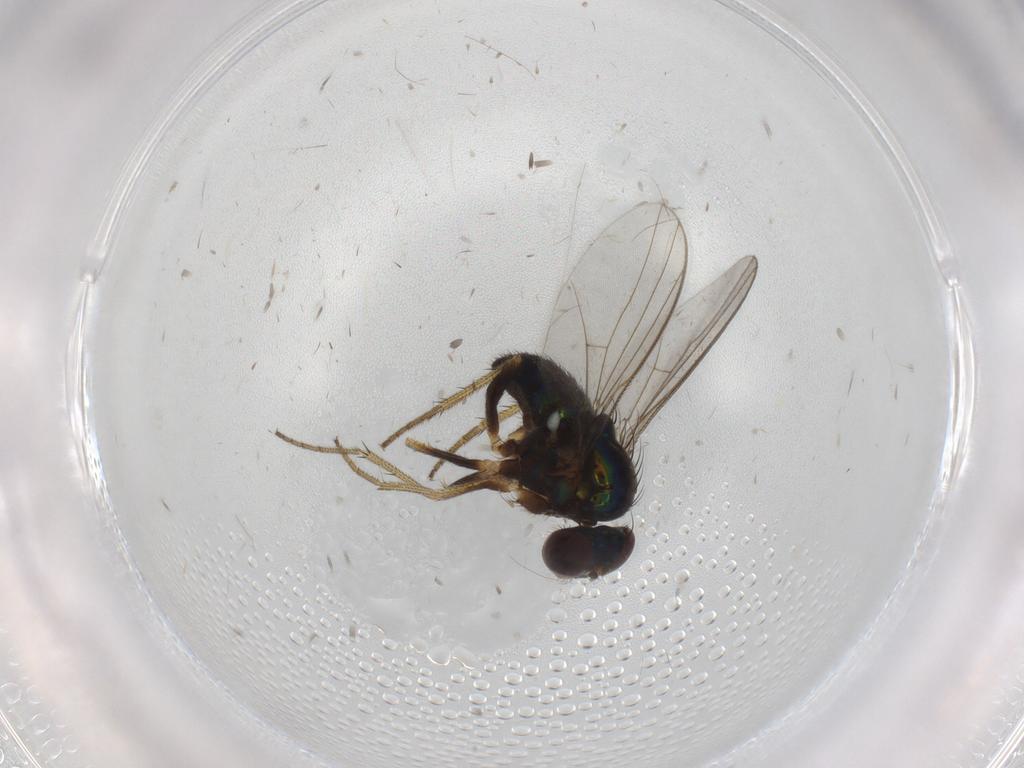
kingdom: Animalia
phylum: Arthropoda
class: Insecta
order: Diptera
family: Dolichopodidae
